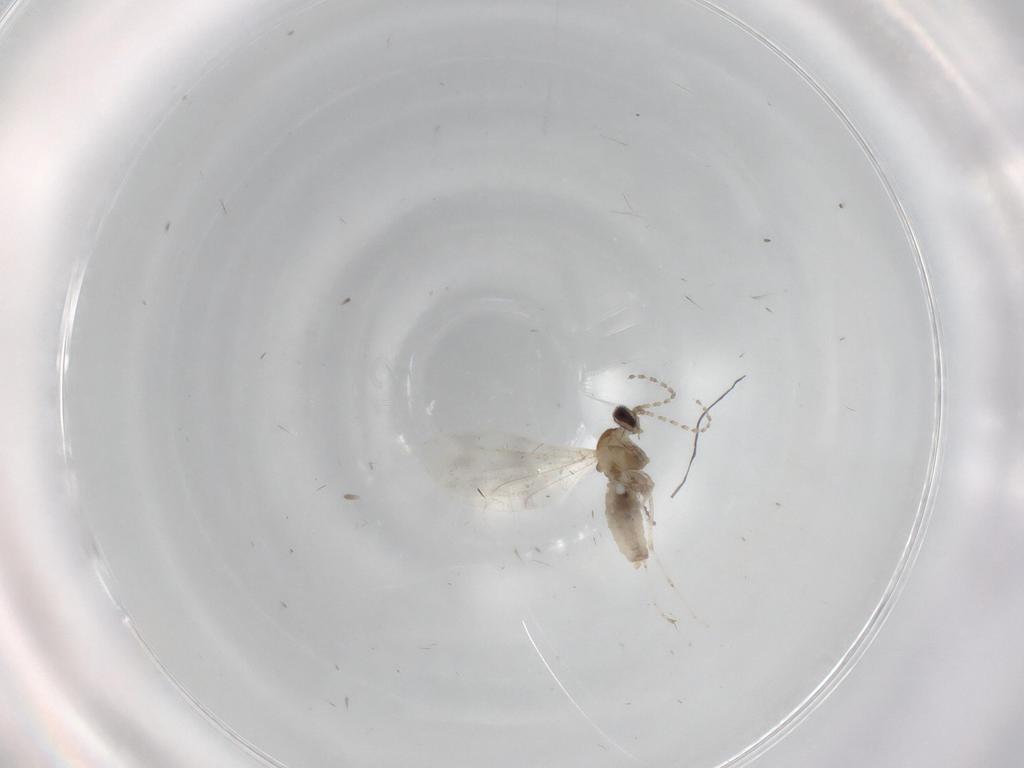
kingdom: Animalia
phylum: Arthropoda
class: Insecta
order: Diptera
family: Cecidomyiidae
